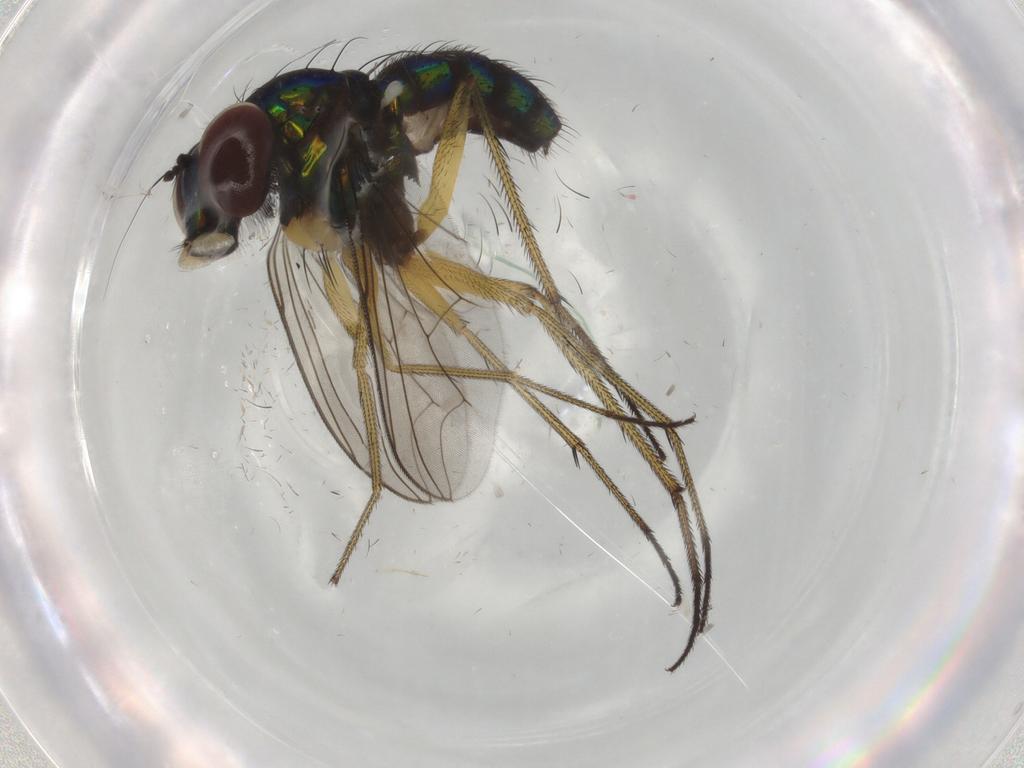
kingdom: Animalia
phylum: Arthropoda
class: Insecta
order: Diptera
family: Dolichopodidae
